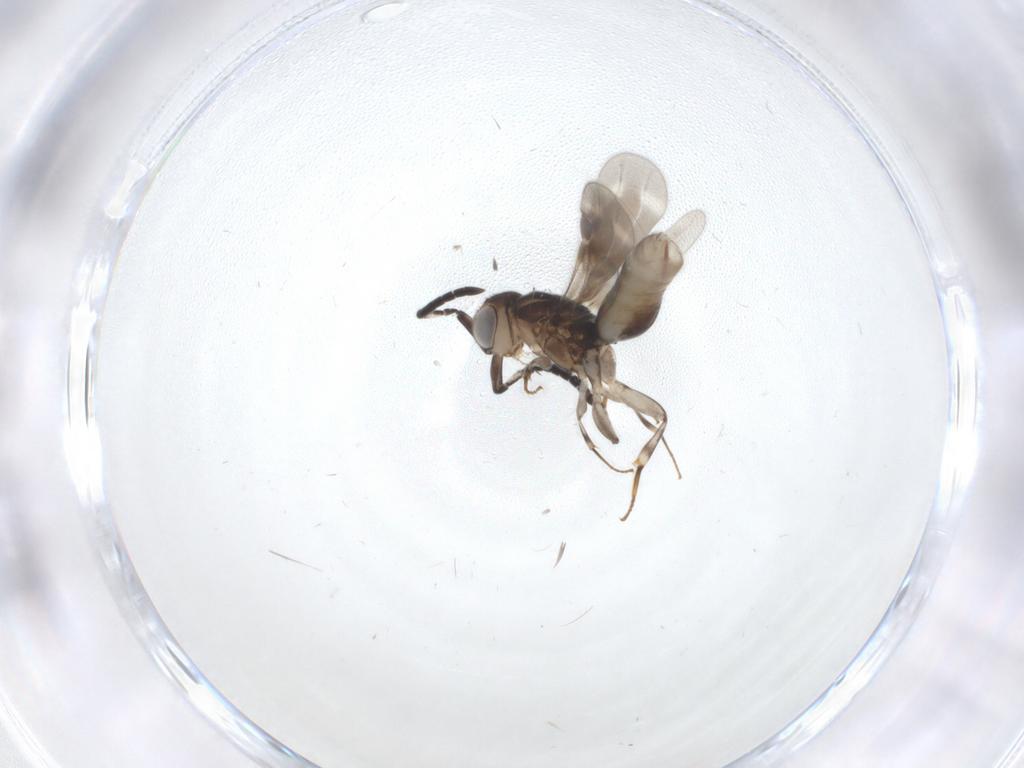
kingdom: Animalia
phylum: Arthropoda
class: Insecta
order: Hymenoptera
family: Megaspilidae
